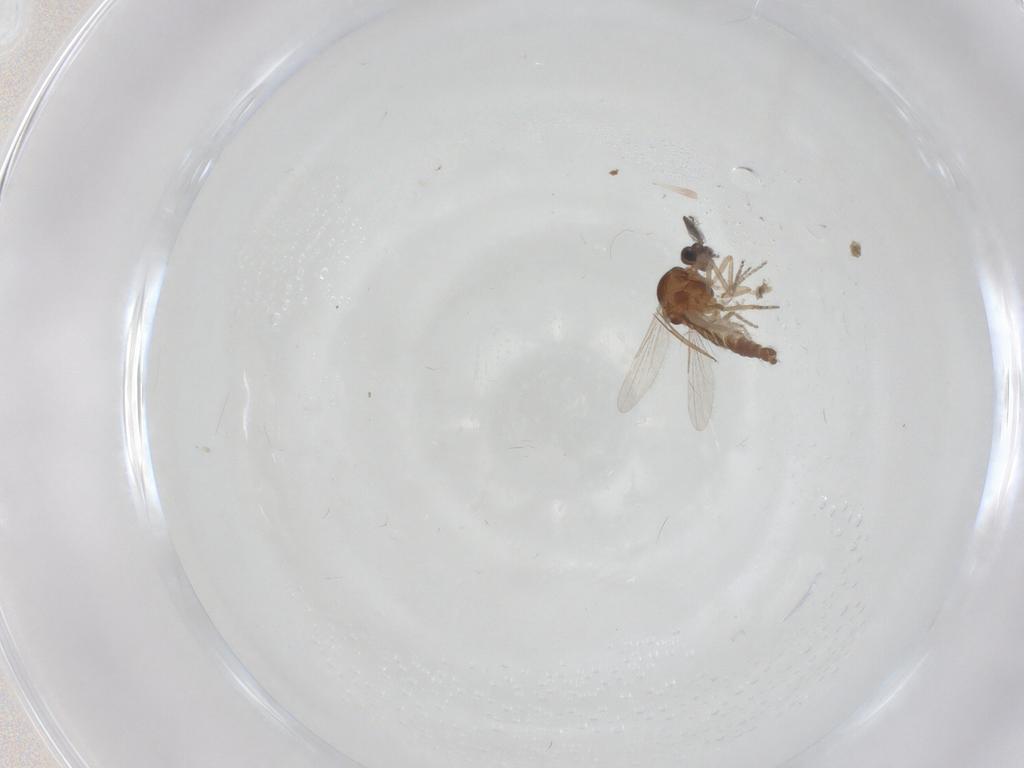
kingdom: Animalia
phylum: Arthropoda
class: Insecta
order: Diptera
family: Ceratopogonidae
